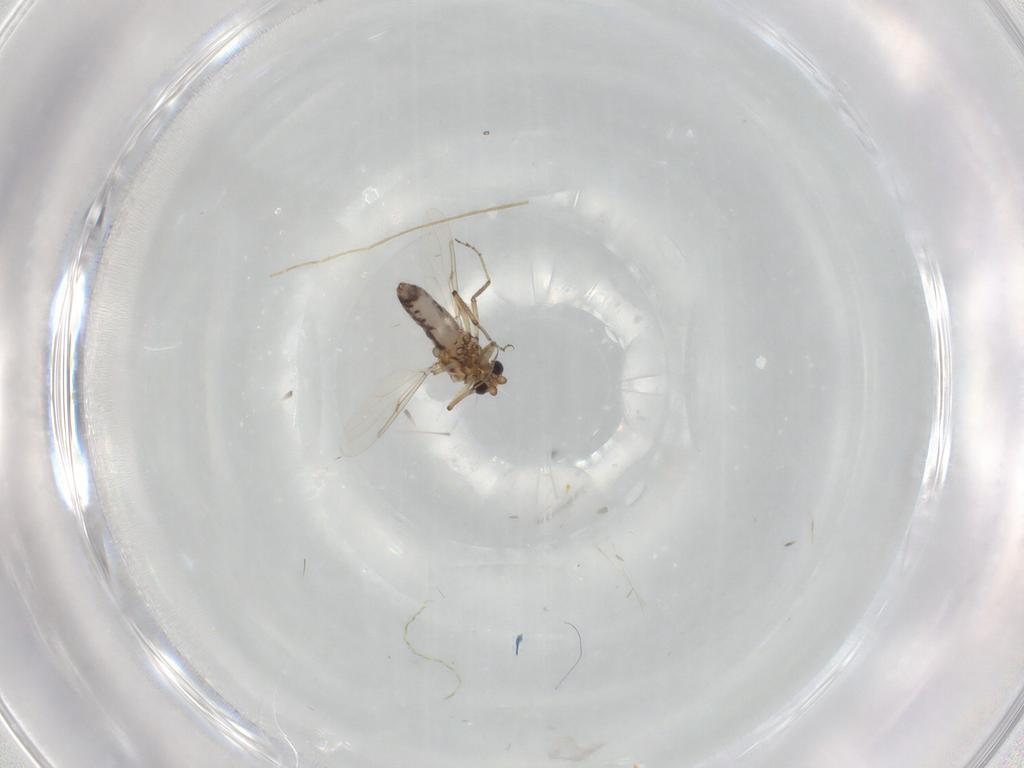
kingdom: Animalia
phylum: Arthropoda
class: Insecta
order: Diptera
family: Ceratopogonidae
